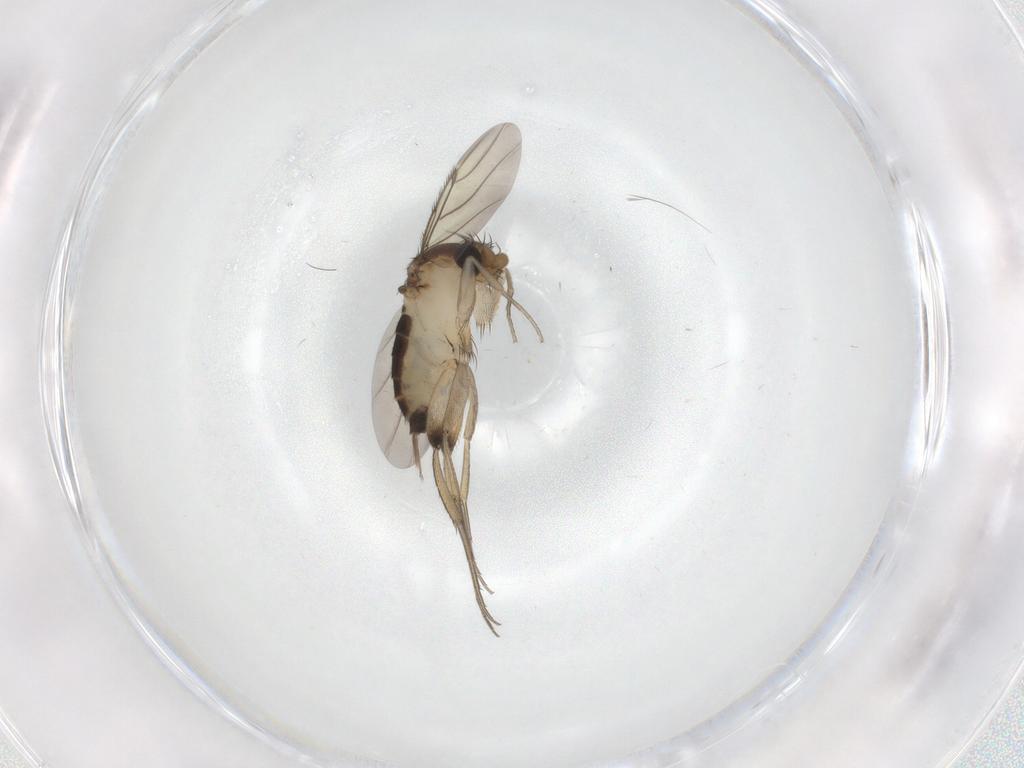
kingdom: Animalia
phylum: Arthropoda
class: Insecta
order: Diptera
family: Phoridae
